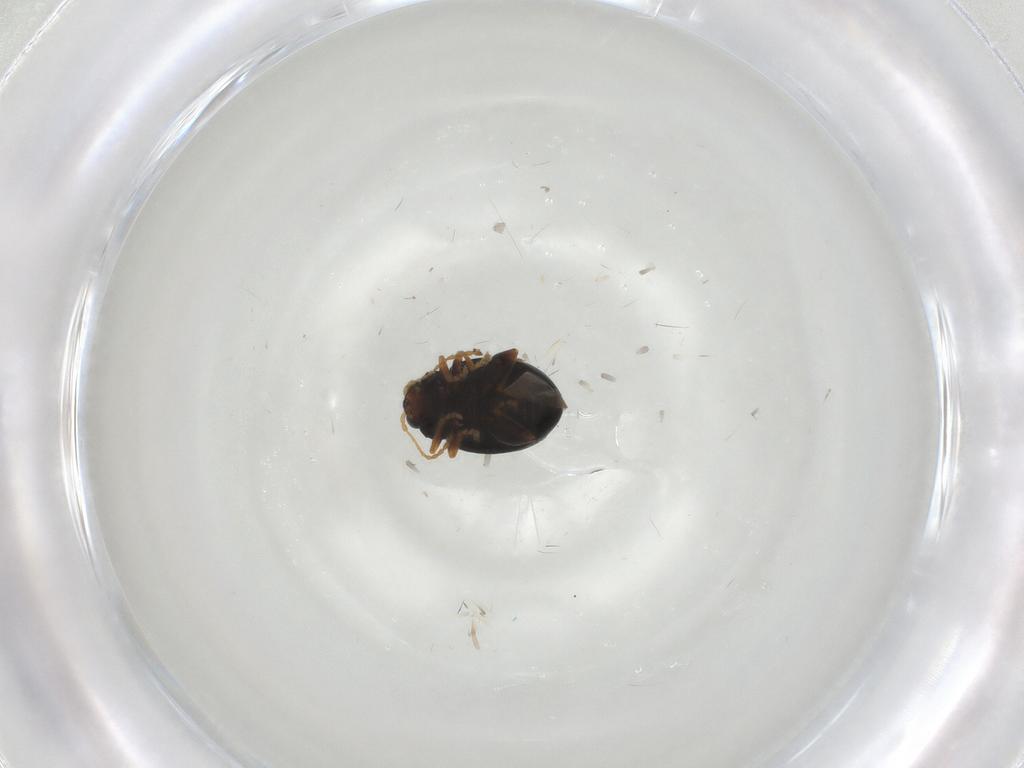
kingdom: Animalia
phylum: Arthropoda
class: Insecta
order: Coleoptera
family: Chrysomelidae
